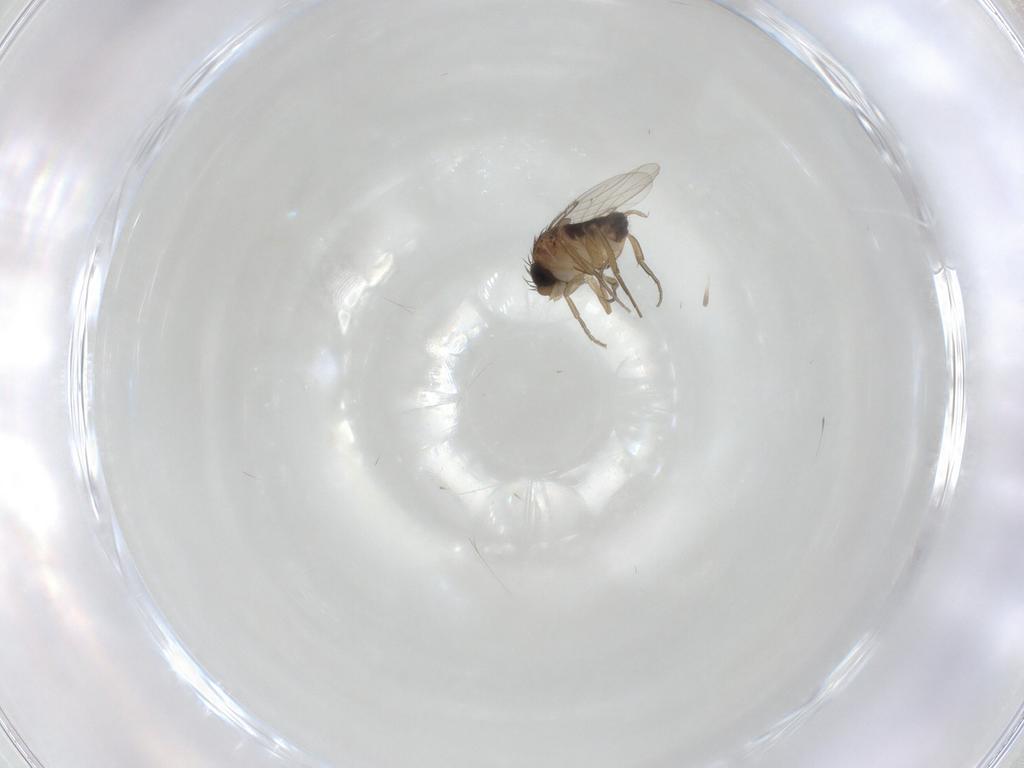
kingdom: Animalia
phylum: Arthropoda
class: Insecta
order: Diptera
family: Phoridae
